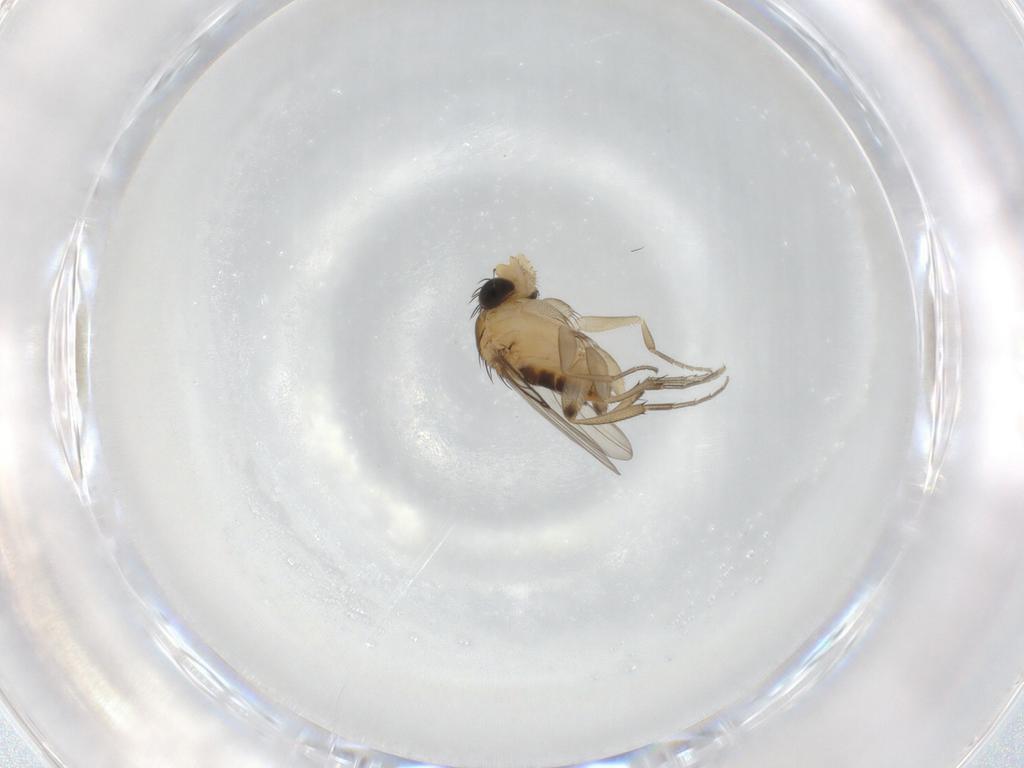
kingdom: Animalia
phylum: Arthropoda
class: Insecta
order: Diptera
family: Phoridae
